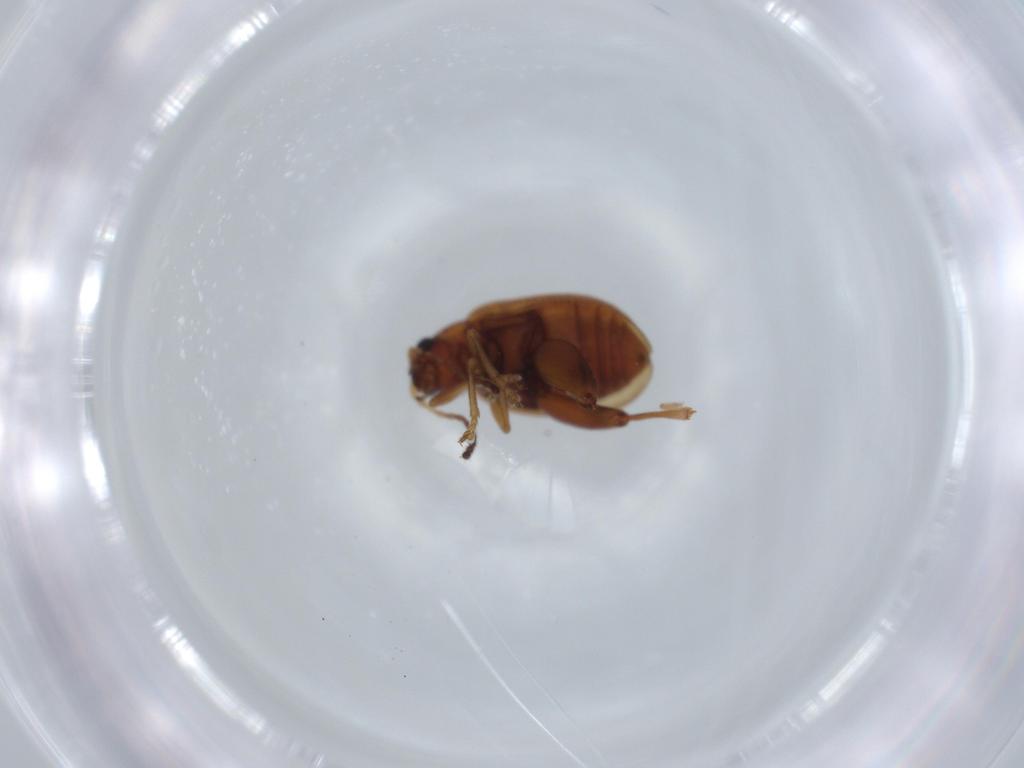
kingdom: Animalia
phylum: Arthropoda
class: Insecta
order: Coleoptera
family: Chrysomelidae
